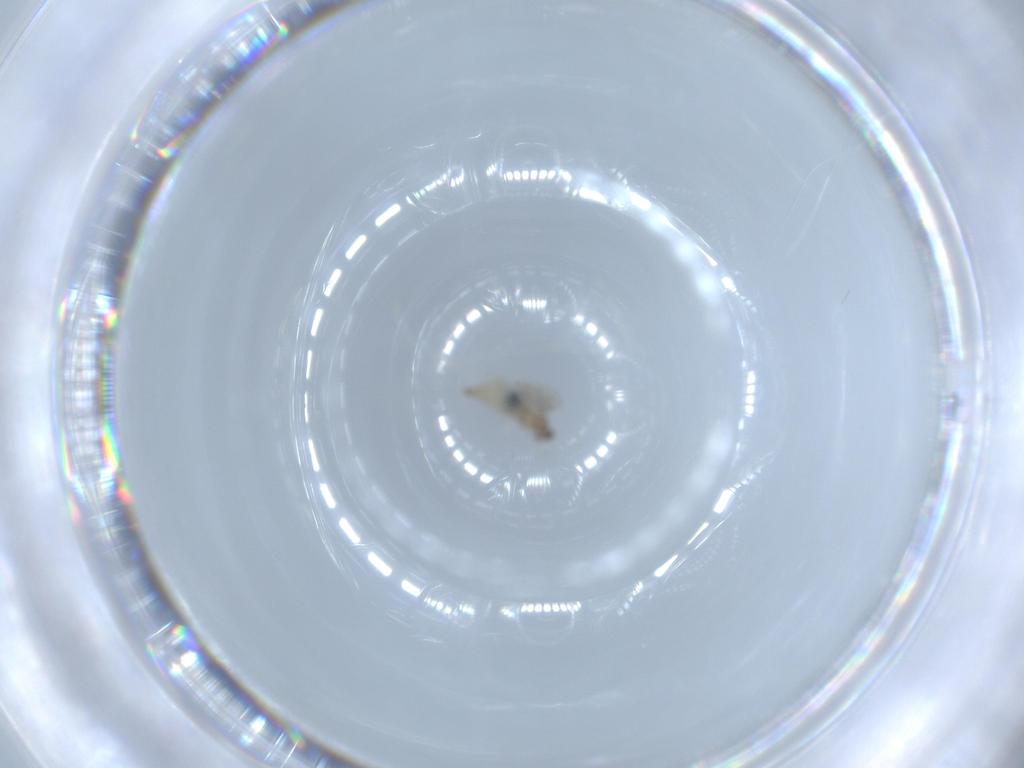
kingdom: Animalia
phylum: Arthropoda
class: Insecta
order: Diptera
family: Cecidomyiidae
